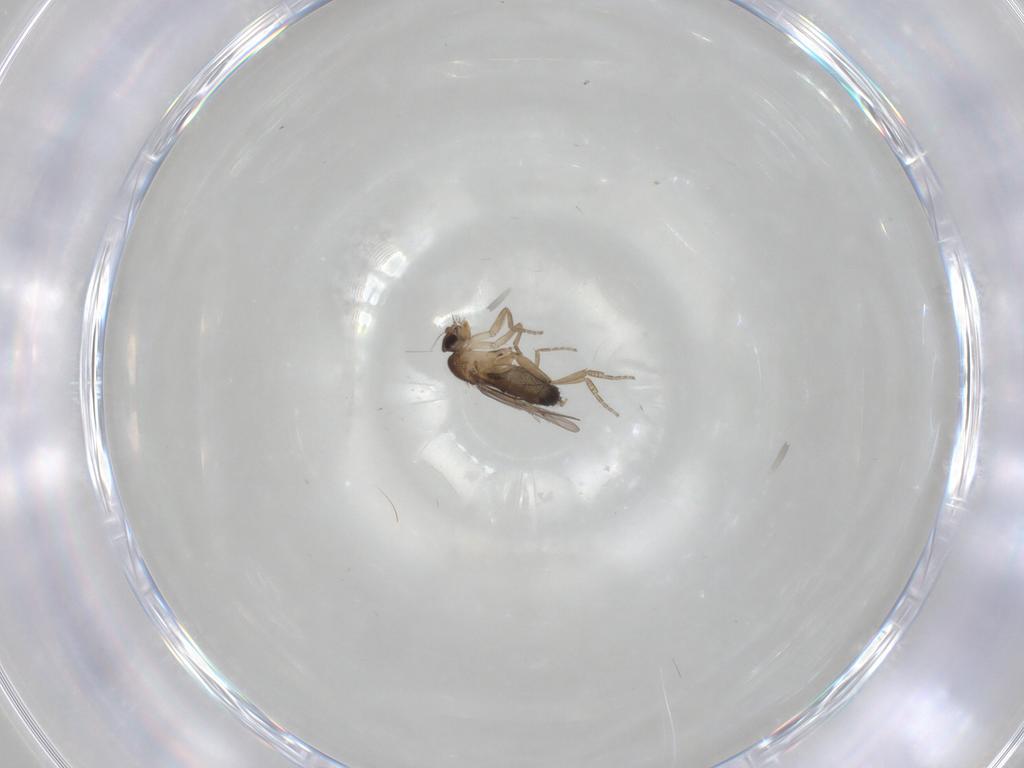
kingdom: Animalia
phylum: Arthropoda
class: Insecta
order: Diptera
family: Phoridae
